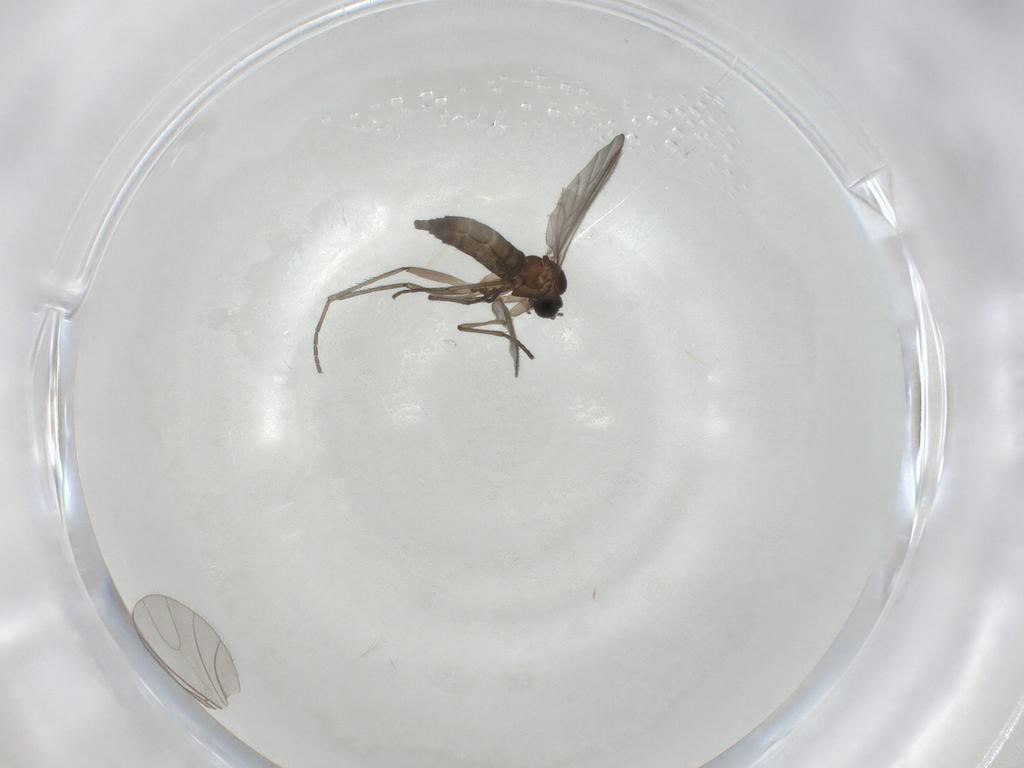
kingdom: Animalia
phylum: Arthropoda
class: Insecta
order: Diptera
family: Sciaridae
